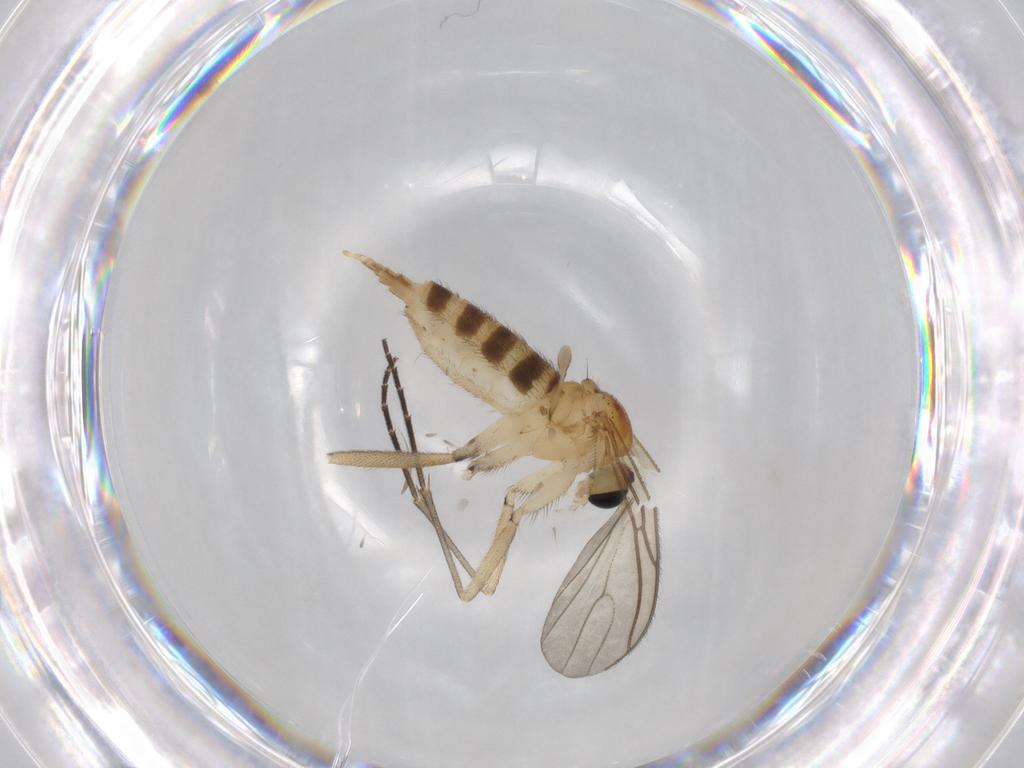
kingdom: Animalia
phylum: Arthropoda
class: Insecta
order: Diptera
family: Sciaridae
